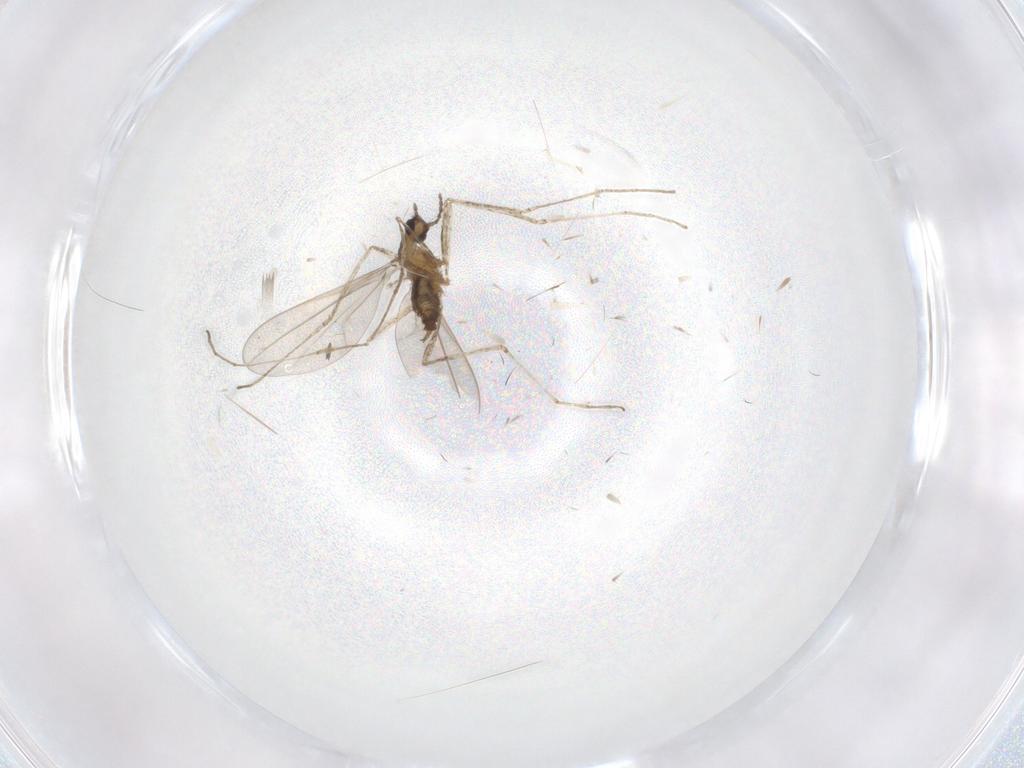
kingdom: Animalia
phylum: Arthropoda
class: Insecta
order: Diptera
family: Cecidomyiidae
